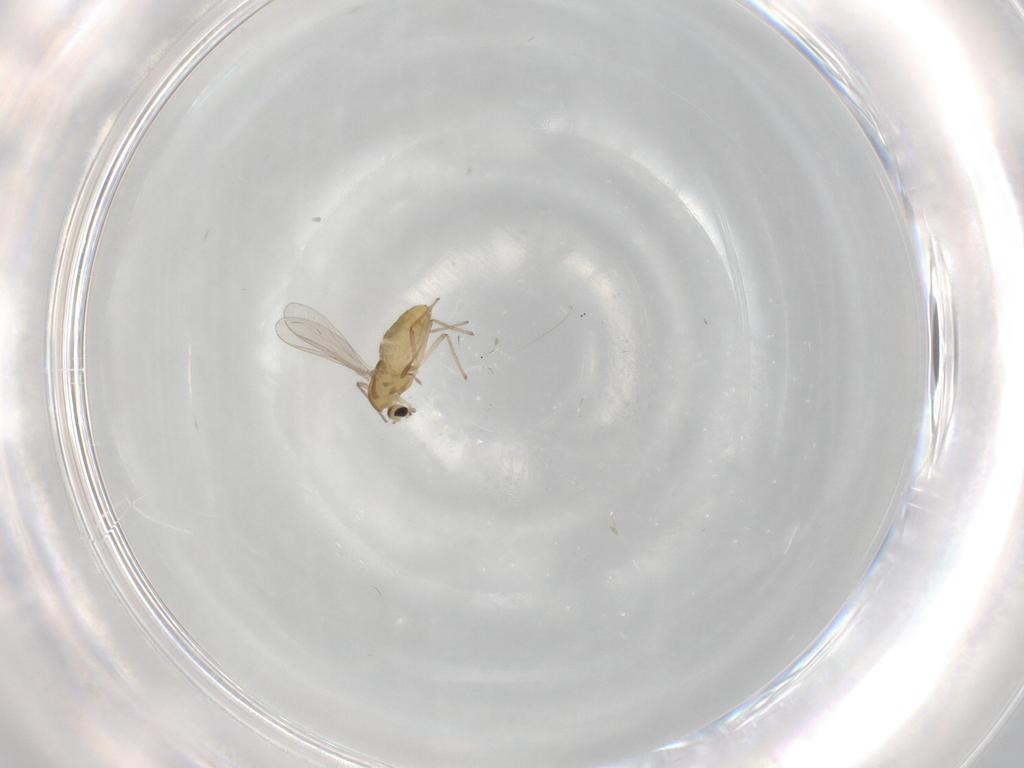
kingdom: Animalia
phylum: Arthropoda
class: Insecta
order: Diptera
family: Chironomidae
